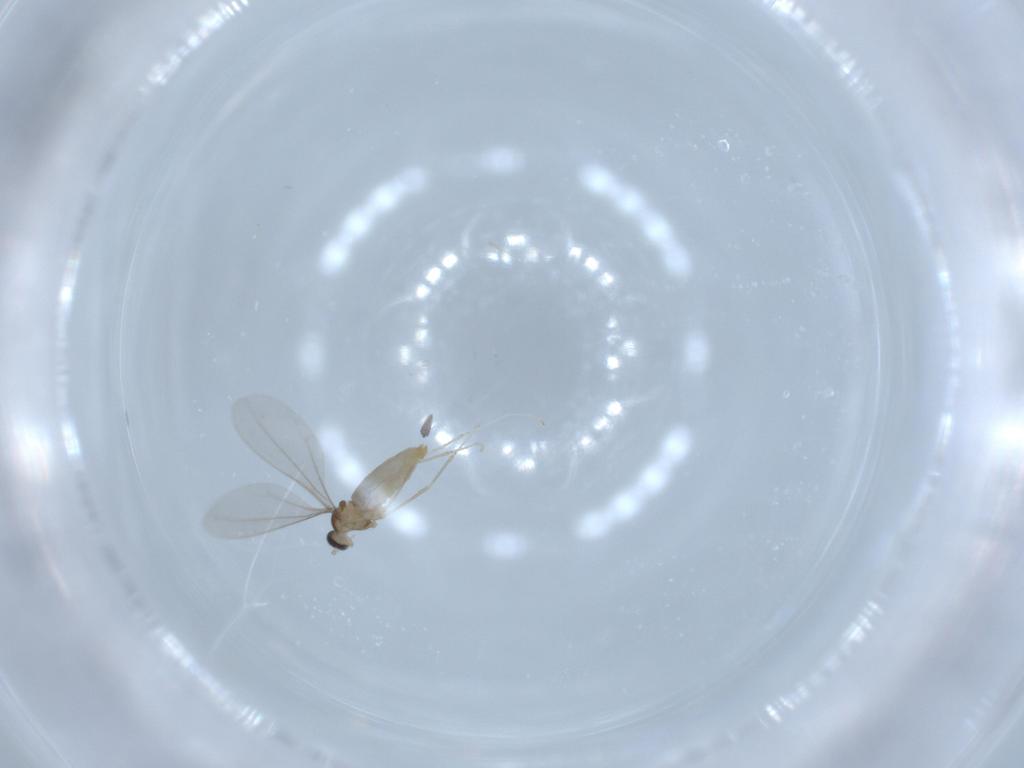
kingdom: Animalia
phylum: Arthropoda
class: Insecta
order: Diptera
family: Cecidomyiidae
